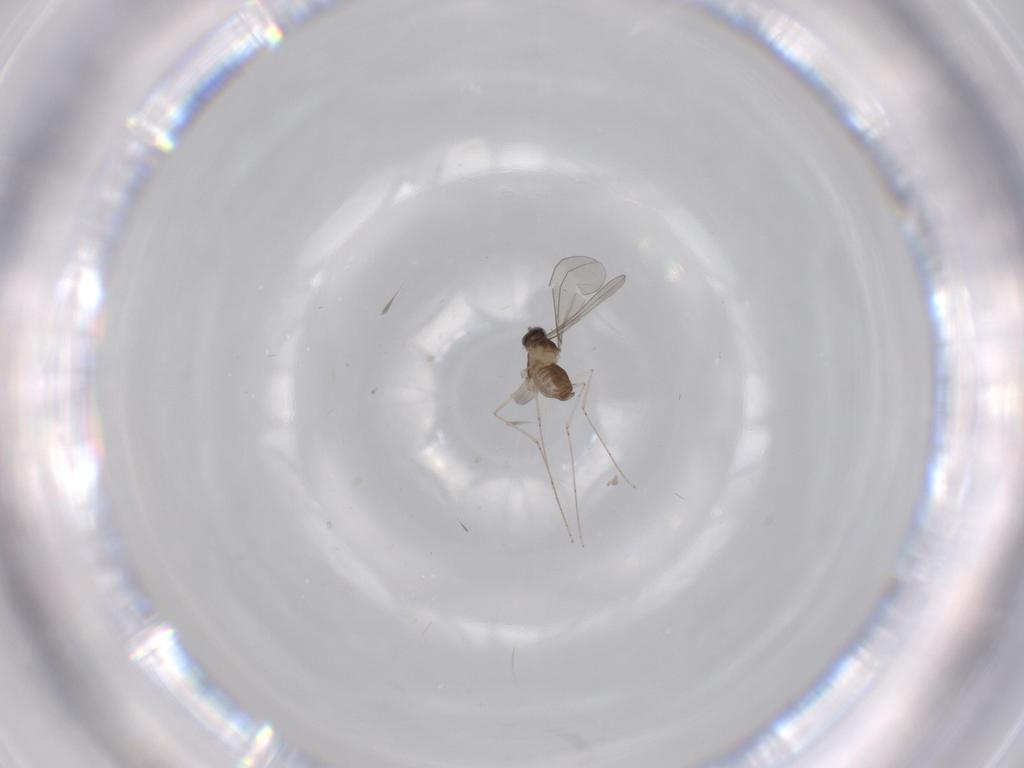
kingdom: Animalia
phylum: Arthropoda
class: Insecta
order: Diptera
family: Cecidomyiidae
